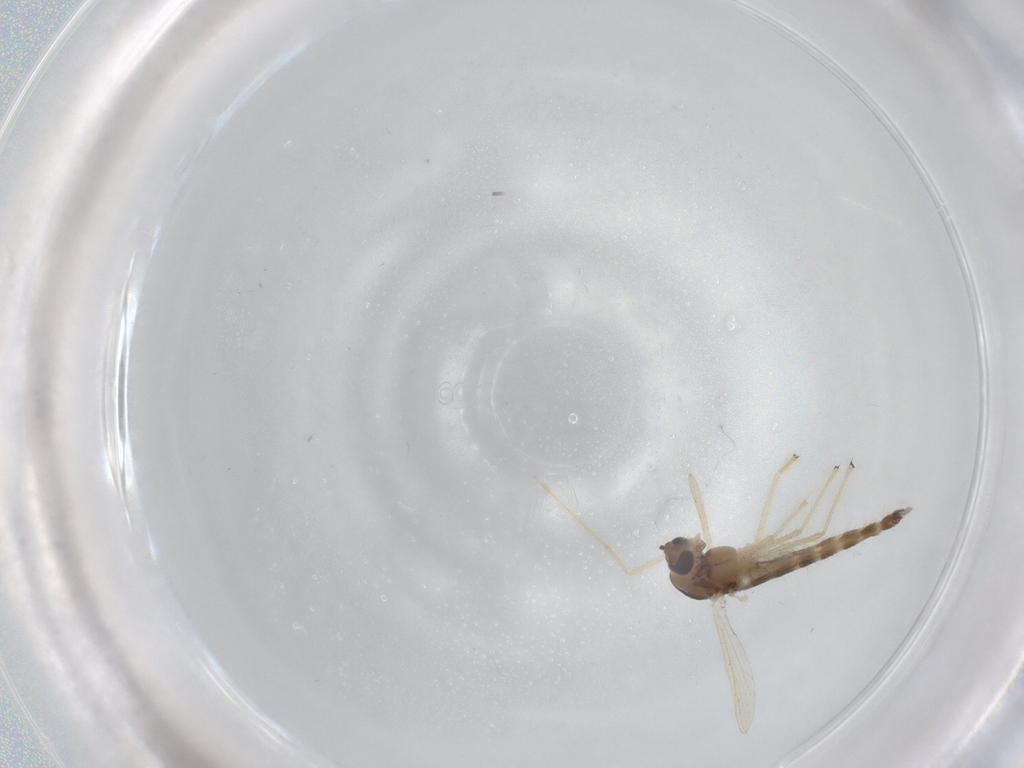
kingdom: Animalia
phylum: Arthropoda
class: Insecta
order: Diptera
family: Chironomidae
